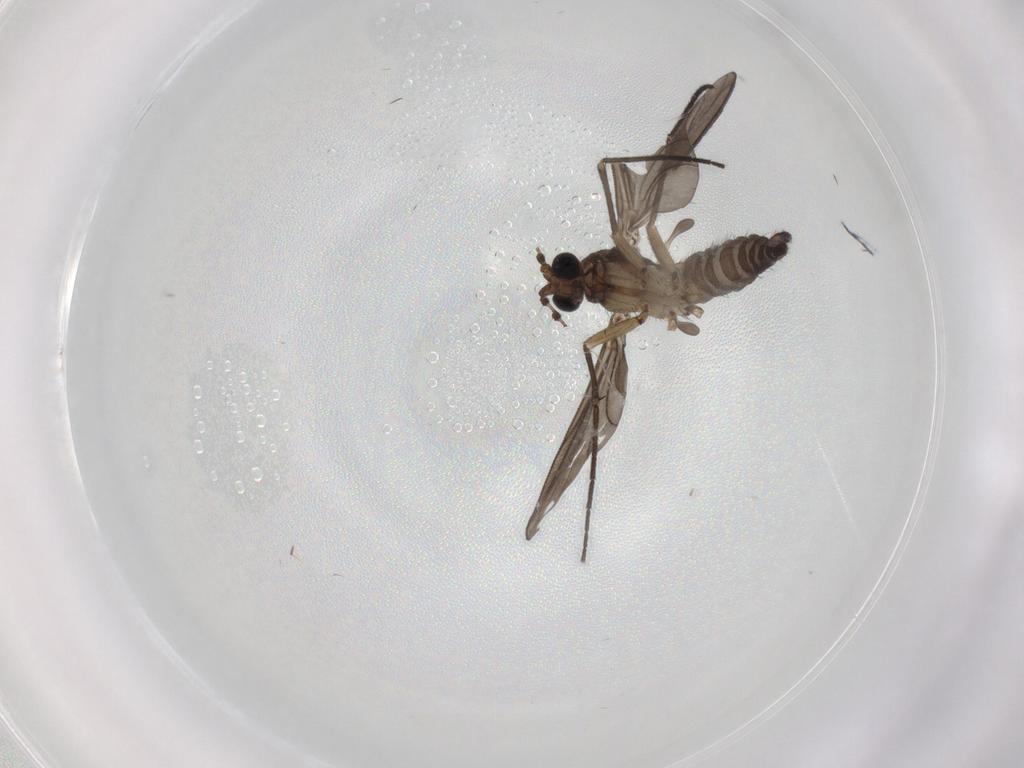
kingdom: Animalia
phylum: Arthropoda
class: Insecta
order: Diptera
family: Sciaridae
